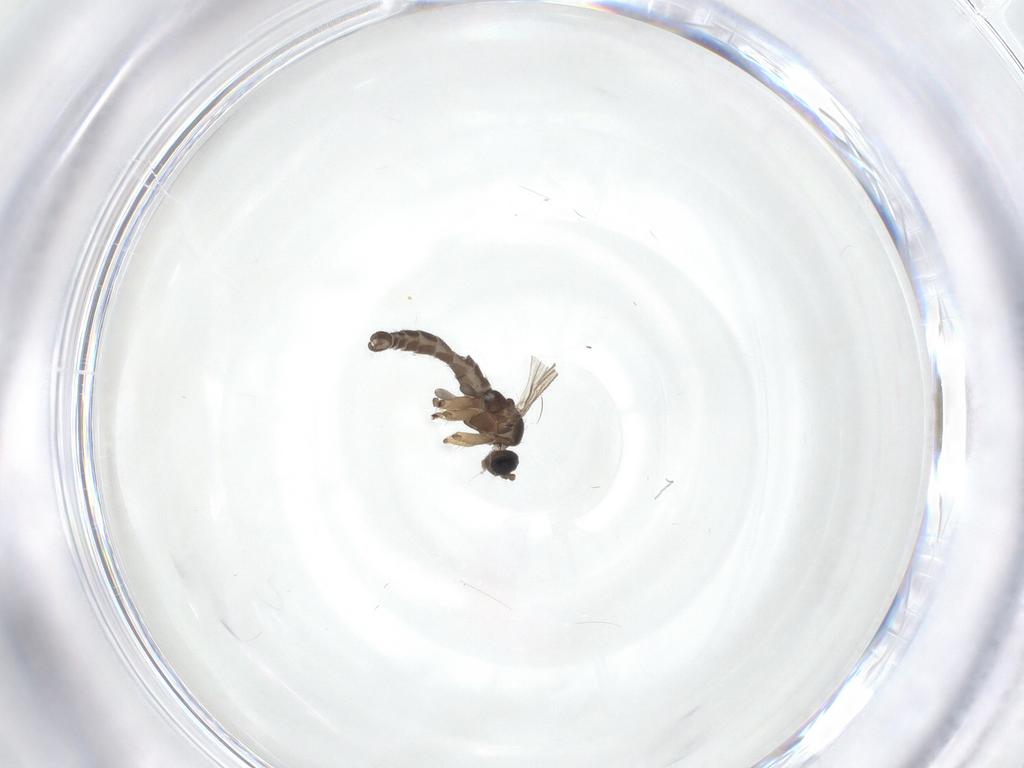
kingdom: Animalia
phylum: Arthropoda
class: Insecta
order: Diptera
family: Sciaridae
